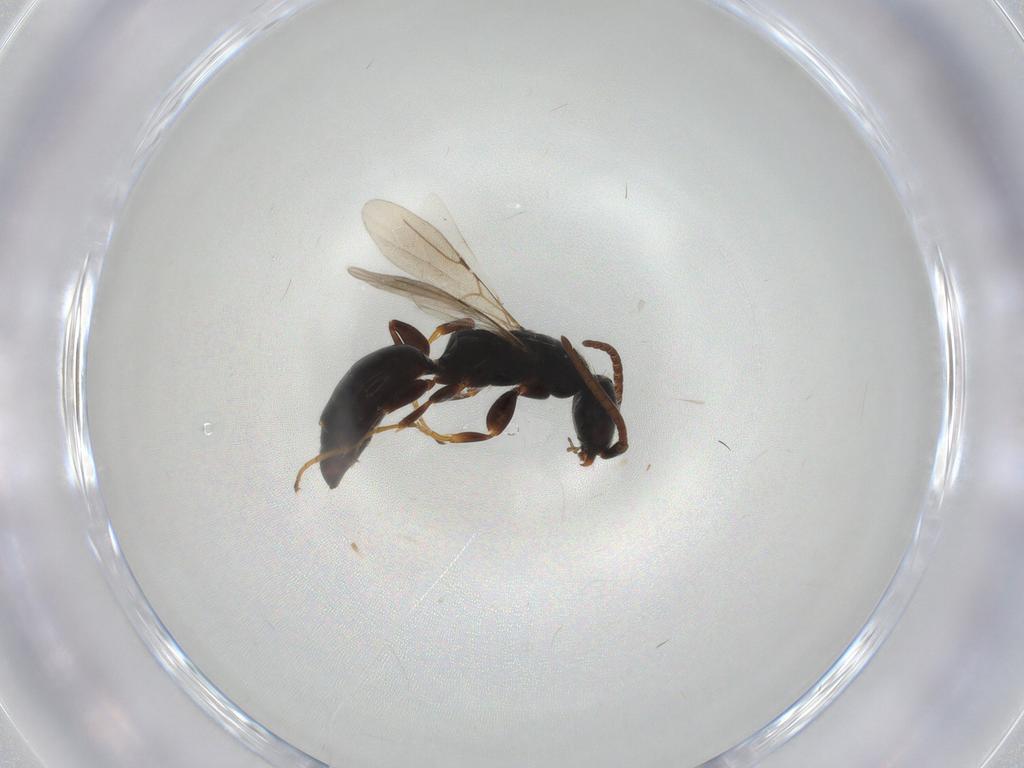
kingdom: Animalia
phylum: Arthropoda
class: Insecta
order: Hymenoptera
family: Bethylidae
